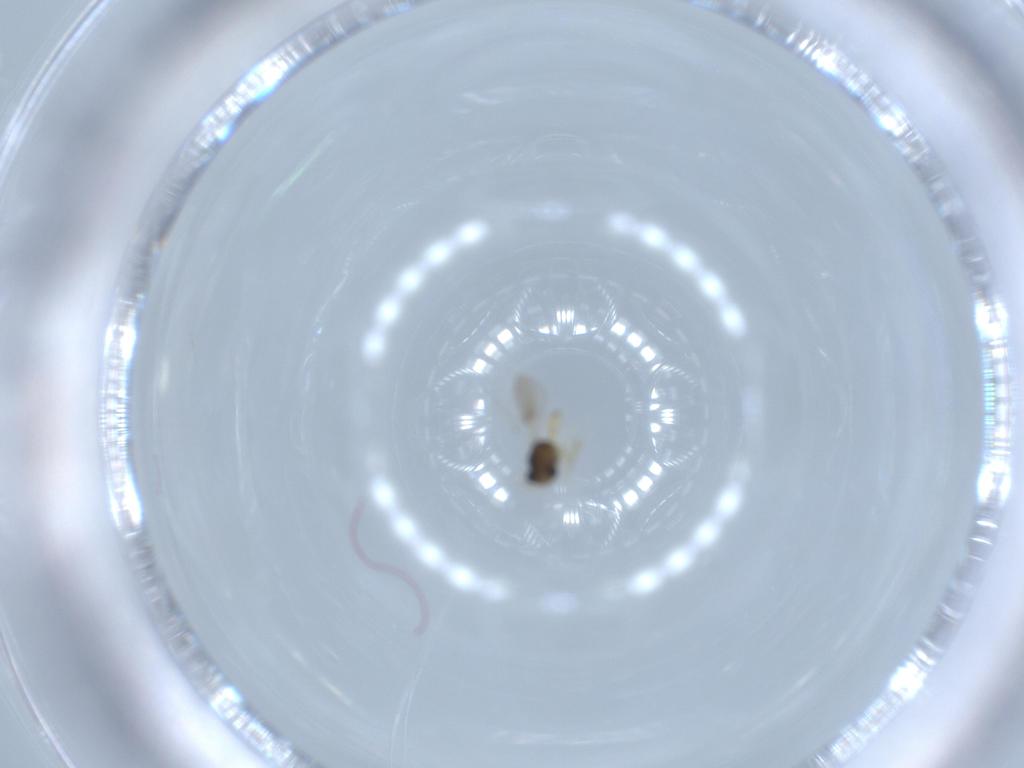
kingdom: Animalia
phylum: Arthropoda
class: Insecta
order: Hymenoptera
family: Scelionidae
